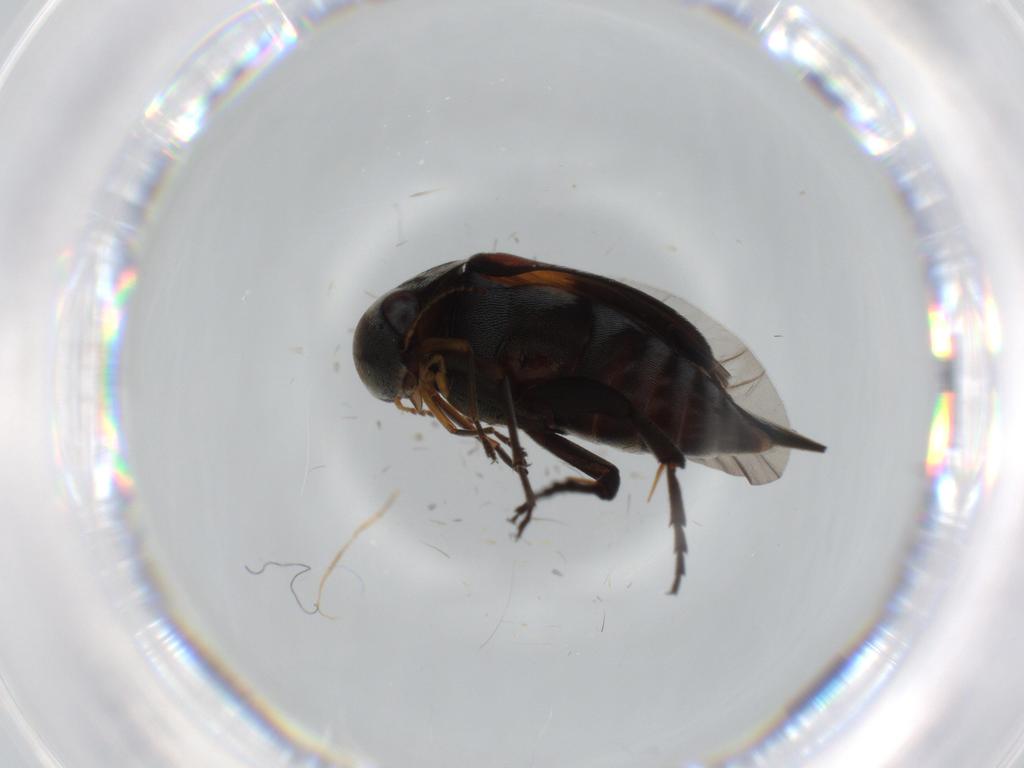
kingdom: Animalia
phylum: Arthropoda
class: Insecta
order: Coleoptera
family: Mordellidae
